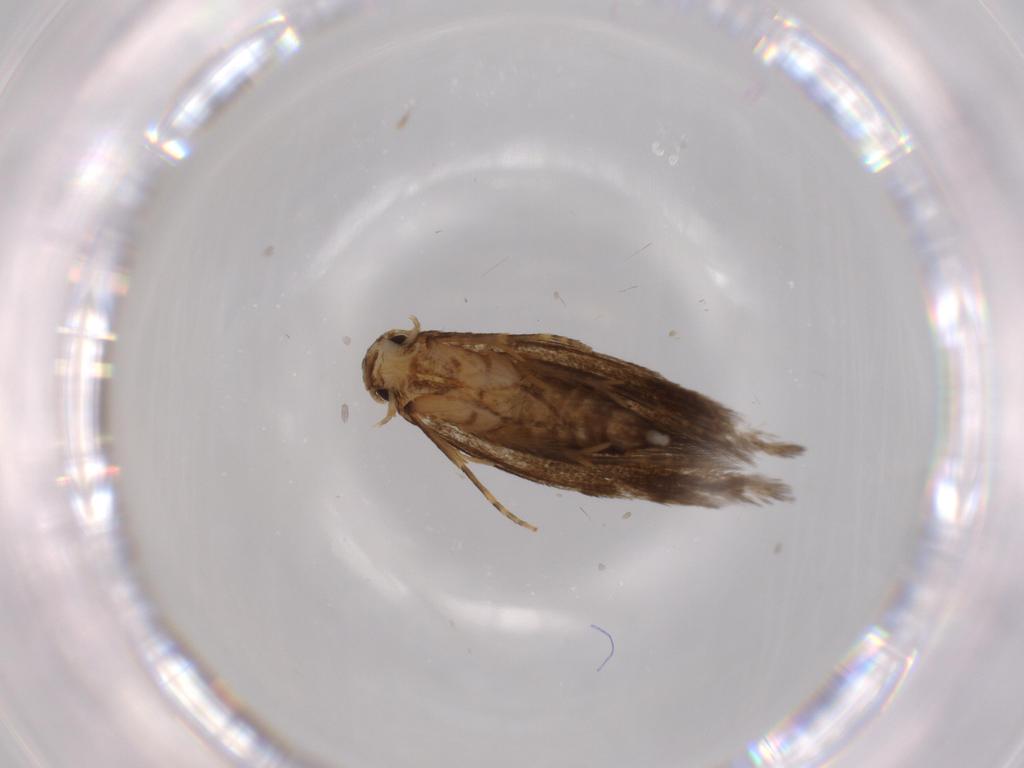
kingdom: Animalia
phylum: Arthropoda
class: Insecta
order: Lepidoptera
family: Tineidae
